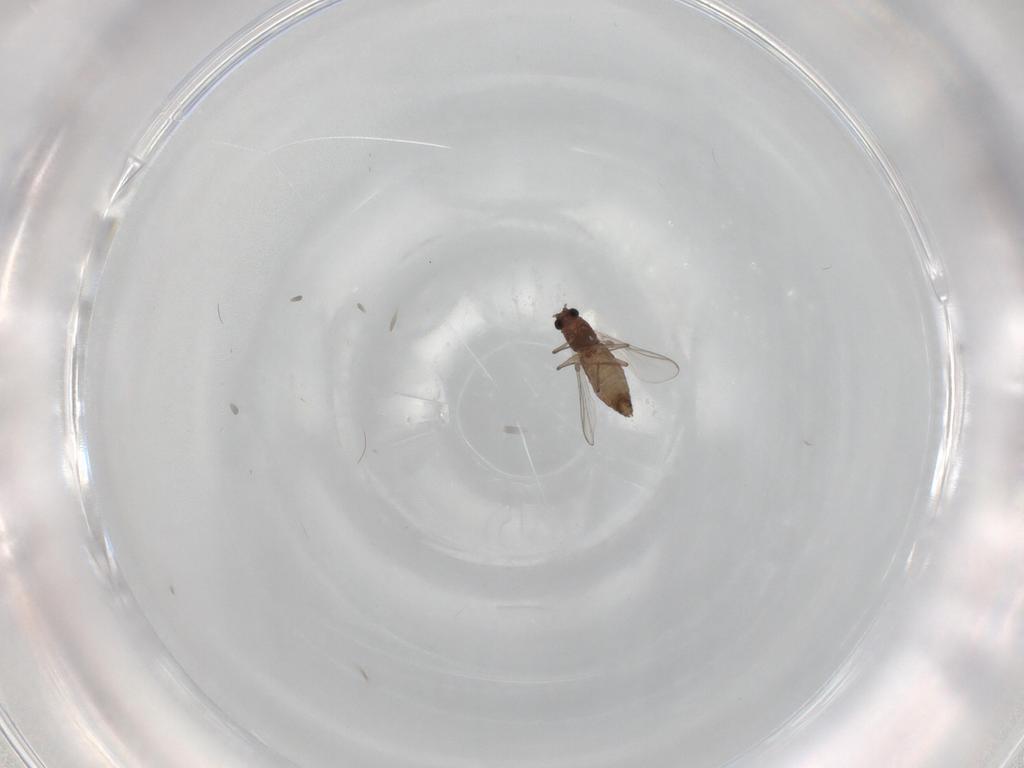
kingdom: Animalia
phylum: Arthropoda
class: Insecta
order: Diptera
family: Chironomidae
